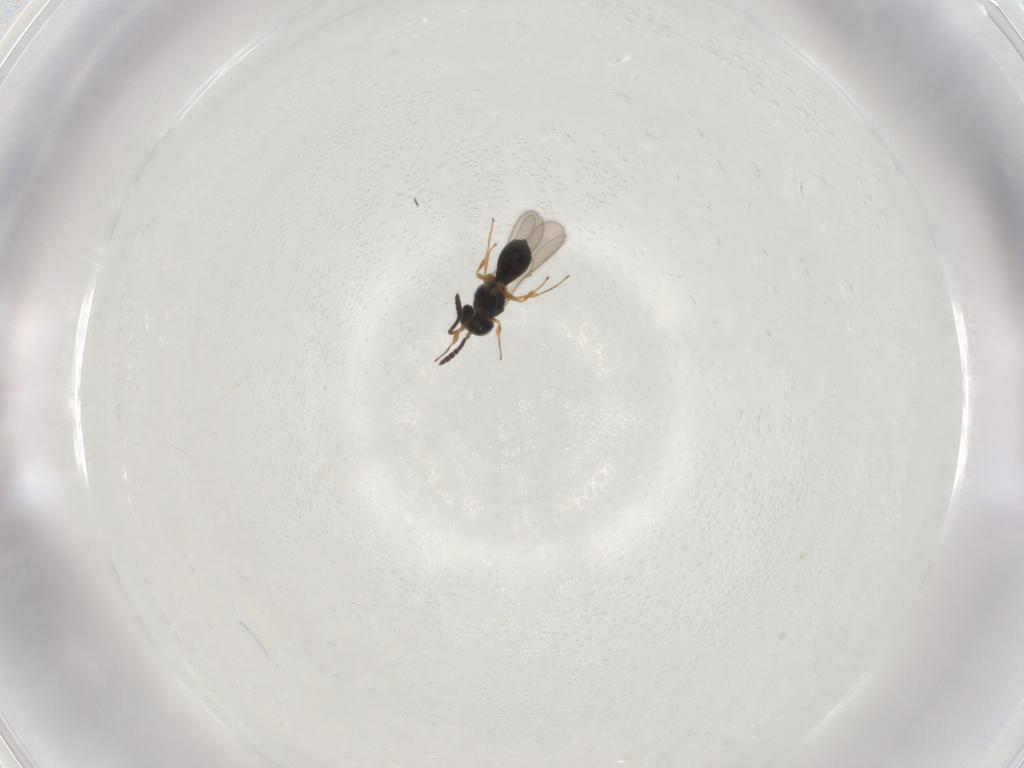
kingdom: Animalia
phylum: Arthropoda
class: Insecta
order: Hymenoptera
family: Scelionidae
